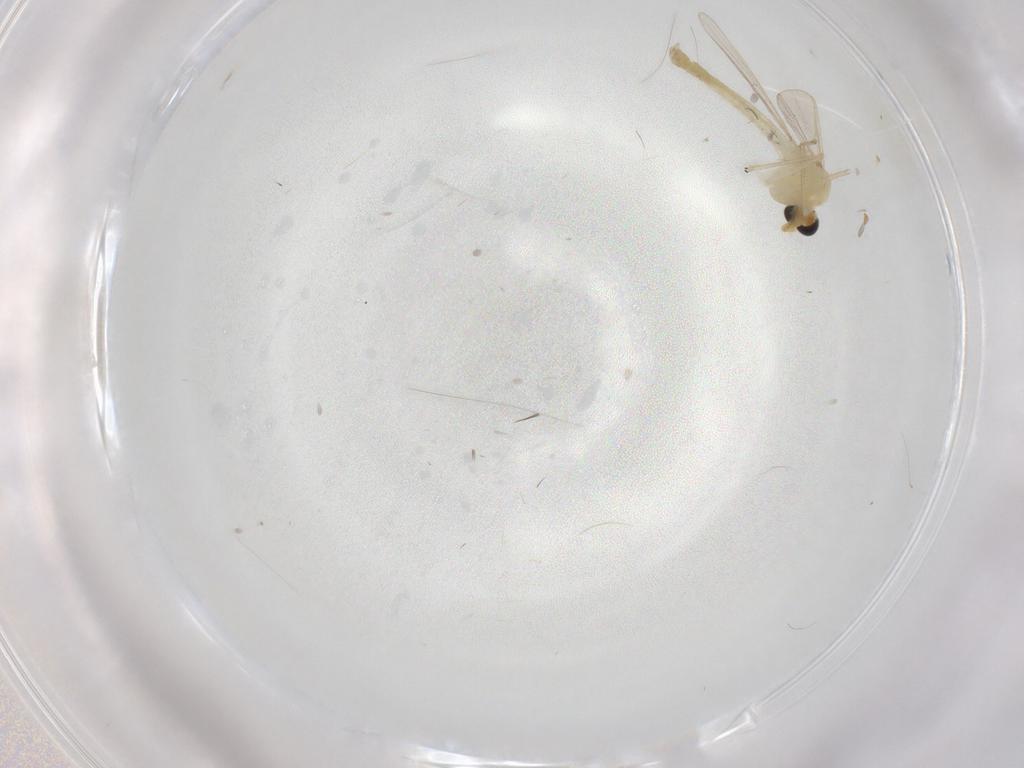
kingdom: Animalia
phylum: Arthropoda
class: Insecta
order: Diptera
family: Chironomidae
